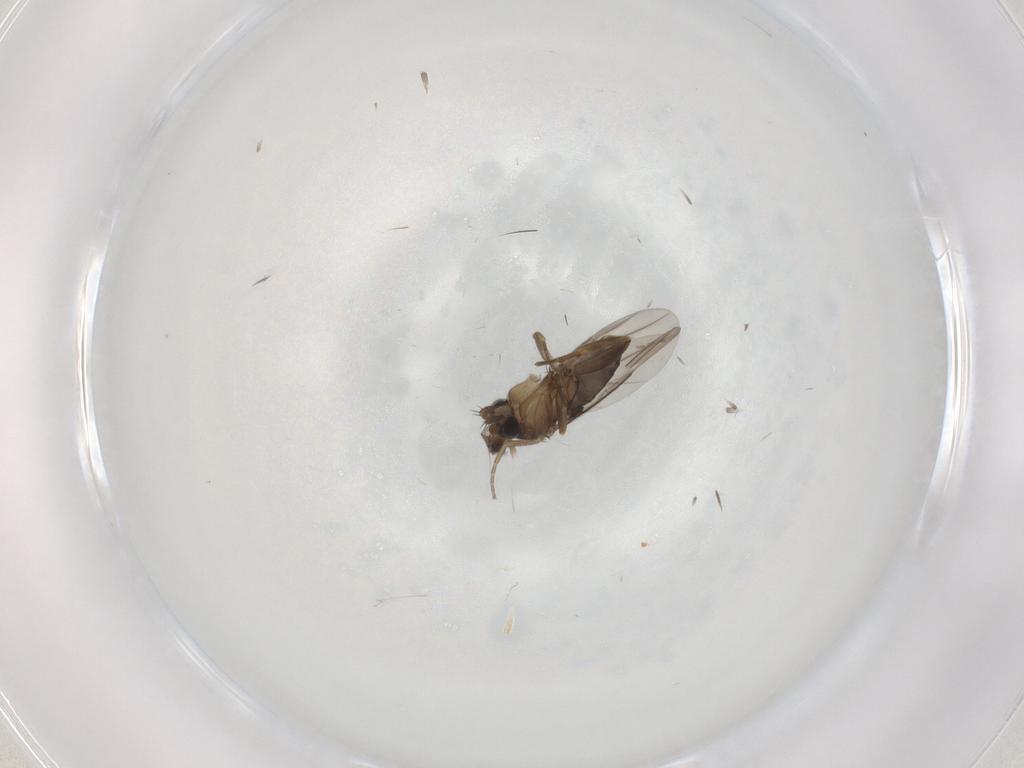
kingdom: Animalia
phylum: Arthropoda
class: Insecta
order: Diptera
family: Phoridae
